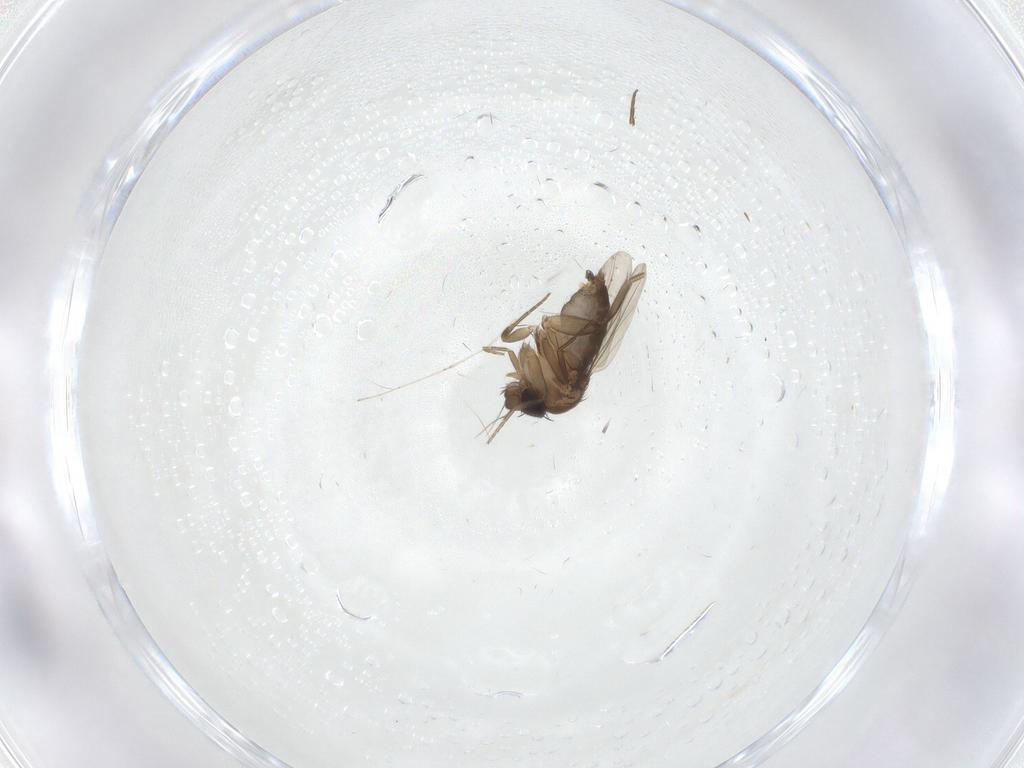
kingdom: Animalia
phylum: Arthropoda
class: Insecta
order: Diptera
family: Phoridae
